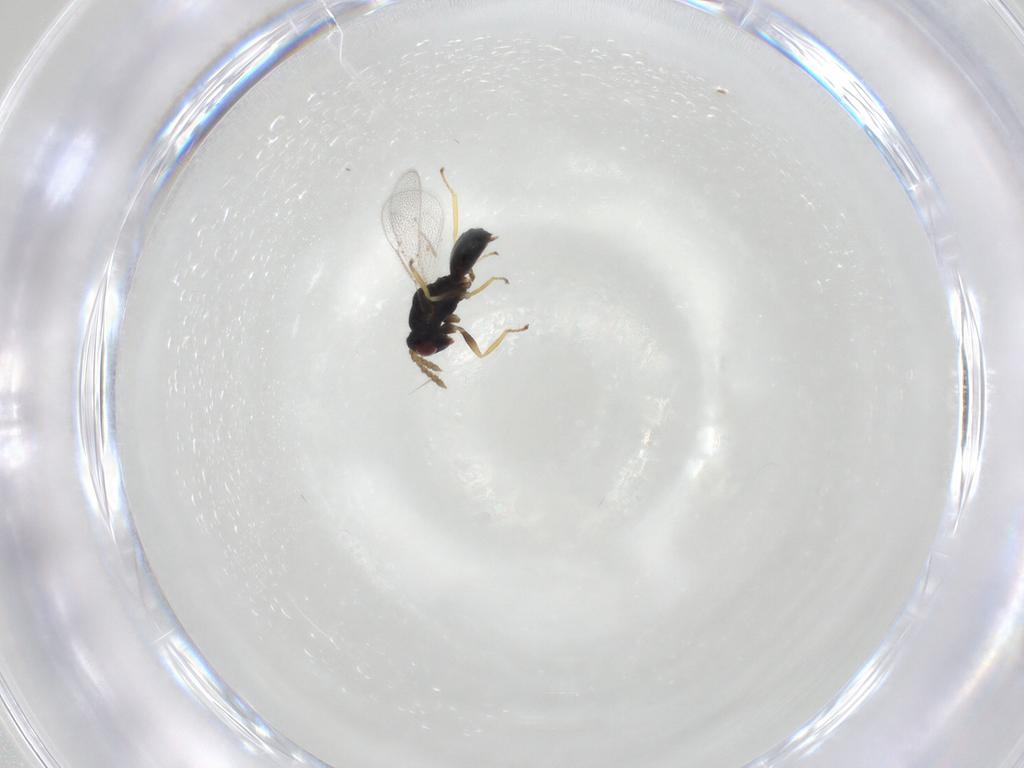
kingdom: Animalia
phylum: Arthropoda
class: Insecta
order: Hymenoptera
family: Eulophidae
